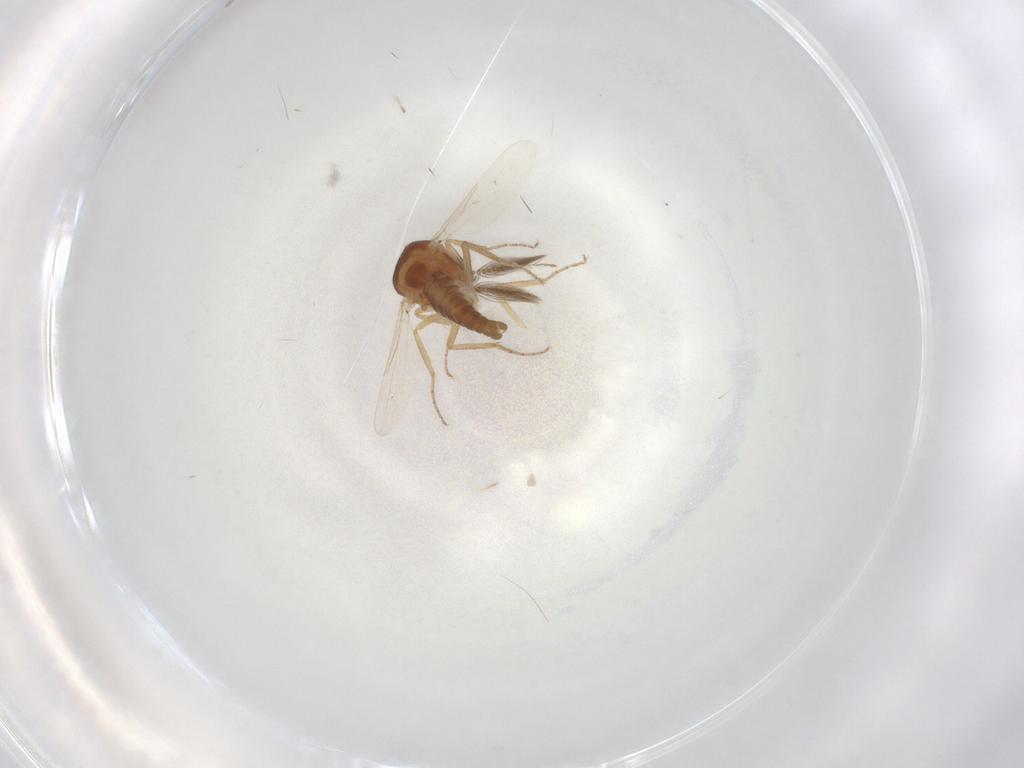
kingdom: Animalia
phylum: Arthropoda
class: Insecta
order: Diptera
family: Ceratopogonidae
